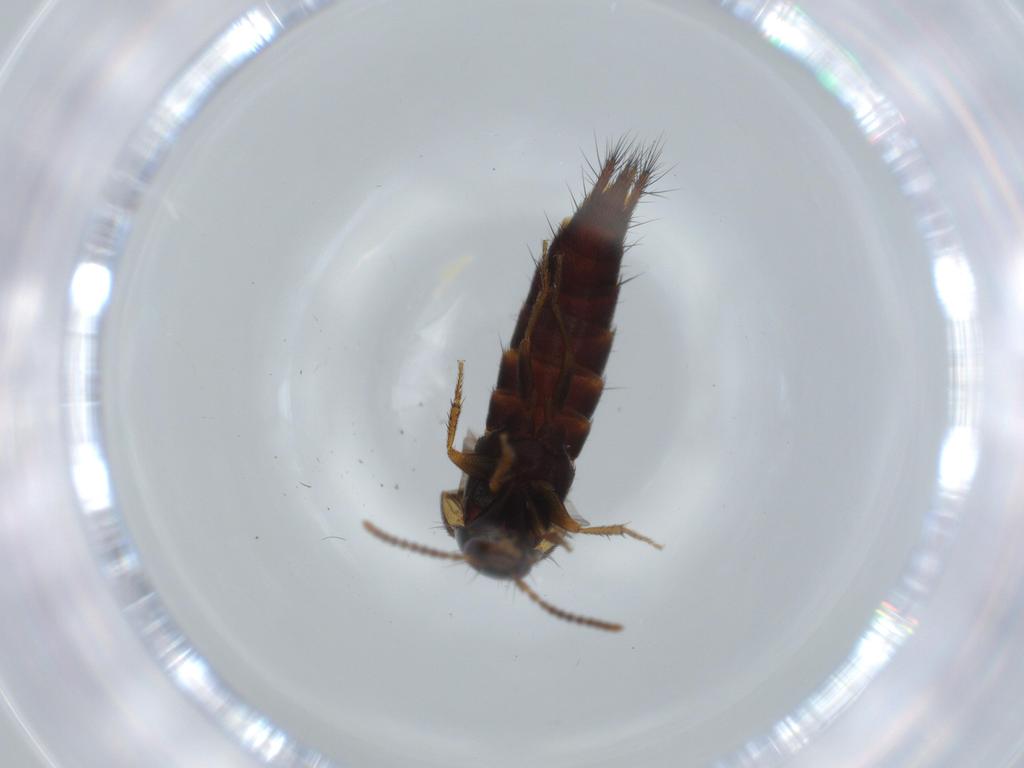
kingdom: Animalia
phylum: Arthropoda
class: Insecta
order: Coleoptera
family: Staphylinidae
